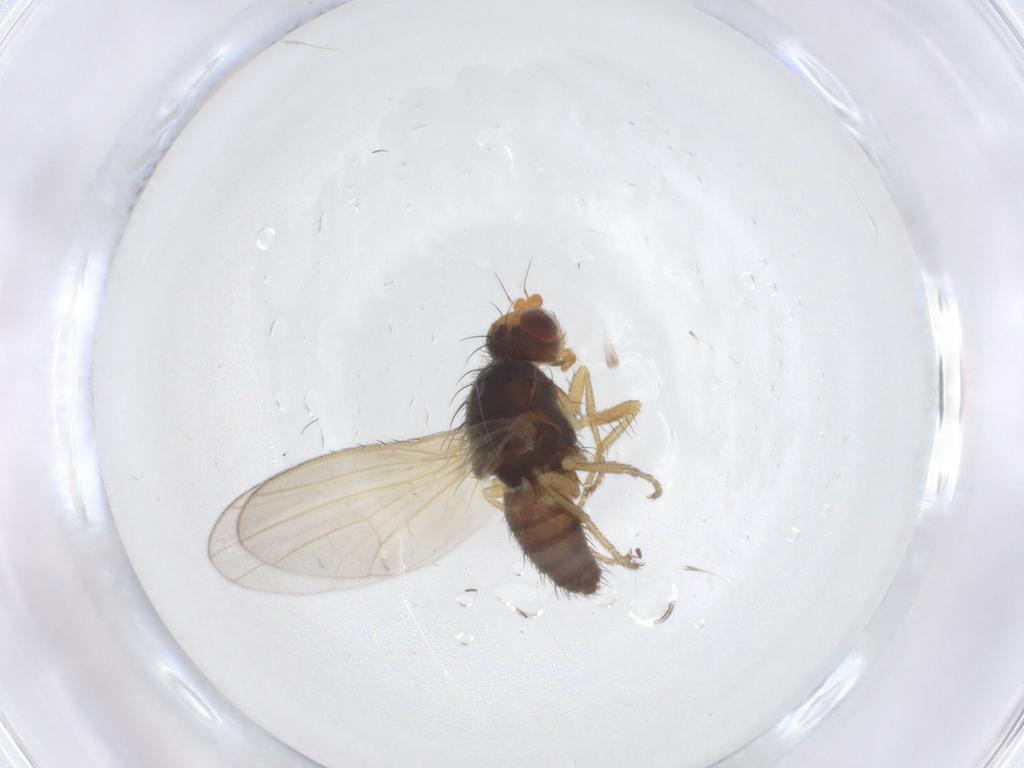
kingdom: Animalia
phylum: Arthropoda
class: Insecta
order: Diptera
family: Heleomyzidae
